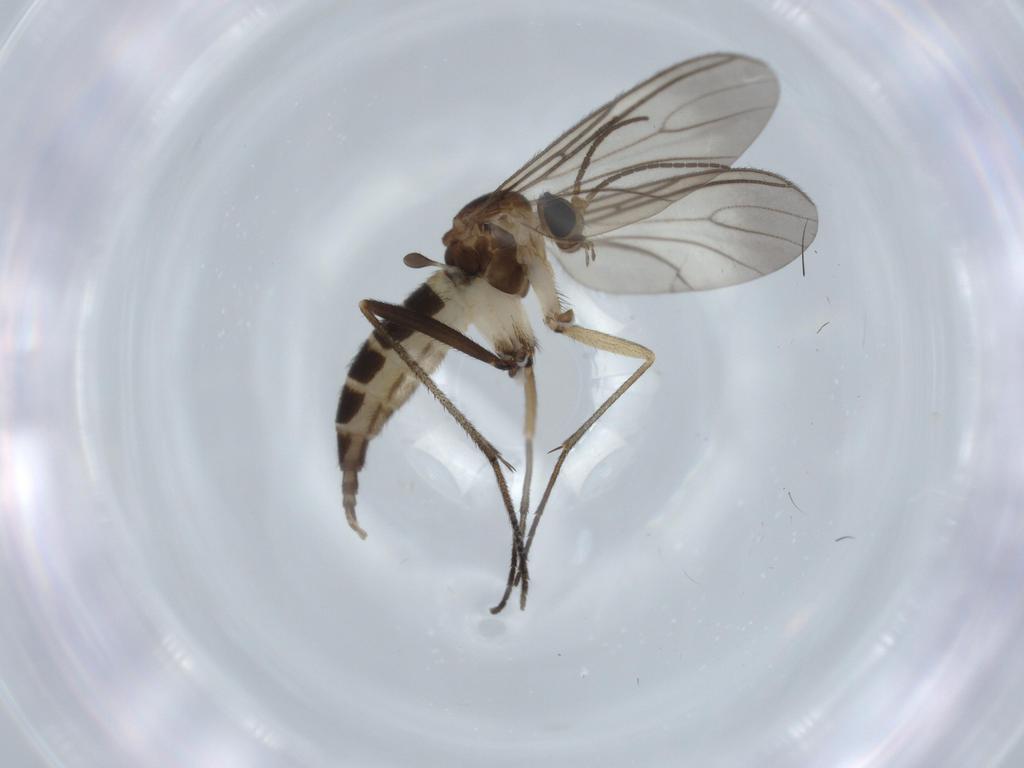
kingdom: Animalia
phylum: Arthropoda
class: Insecta
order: Diptera
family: Sciaridae
